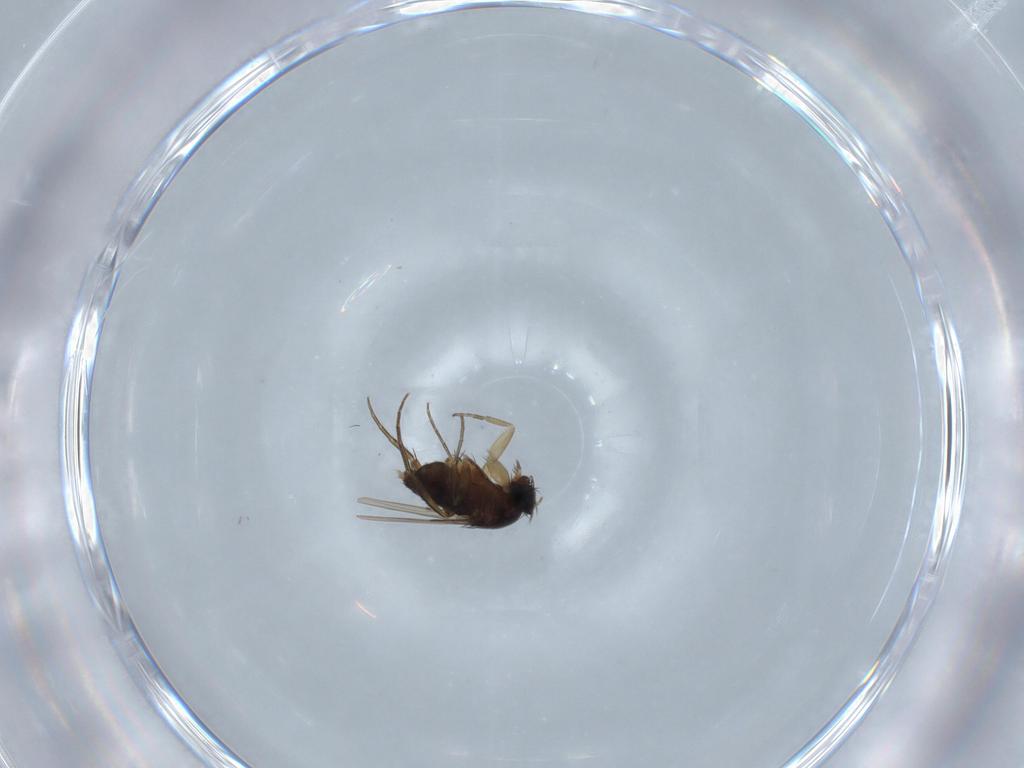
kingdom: Animalia
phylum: Arthropoda
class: Insecta
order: Diptera
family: Phoridae
